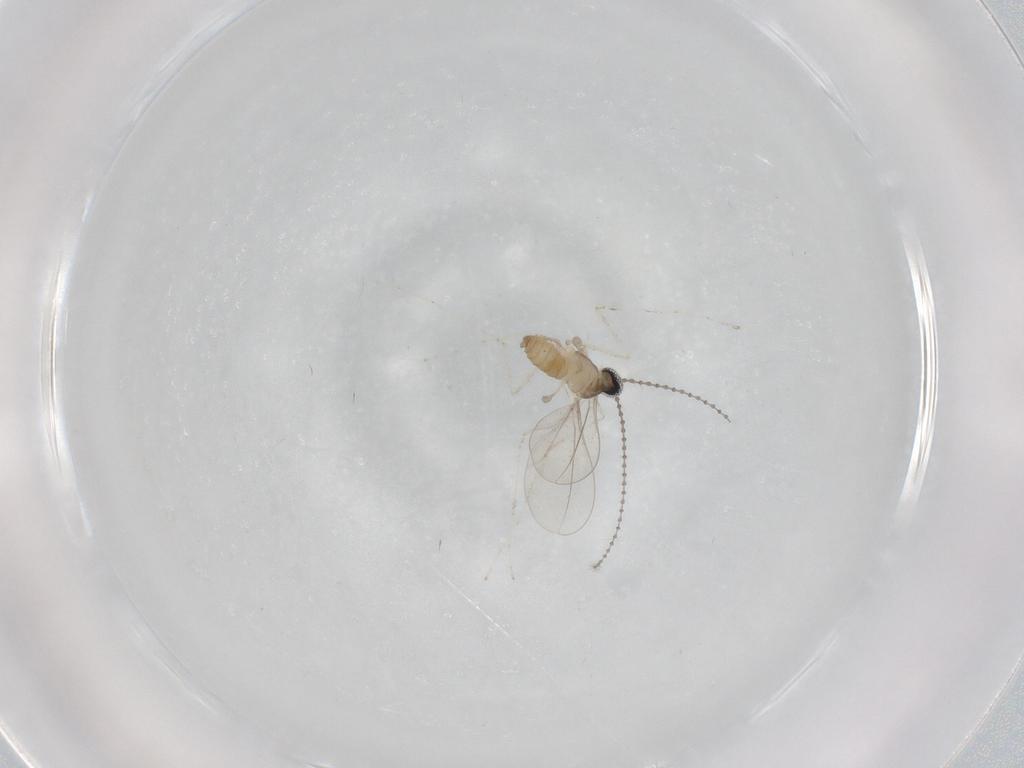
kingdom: Animalia
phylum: Arthropoda
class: Insecta
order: Diptera
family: Cecidomyiidae
